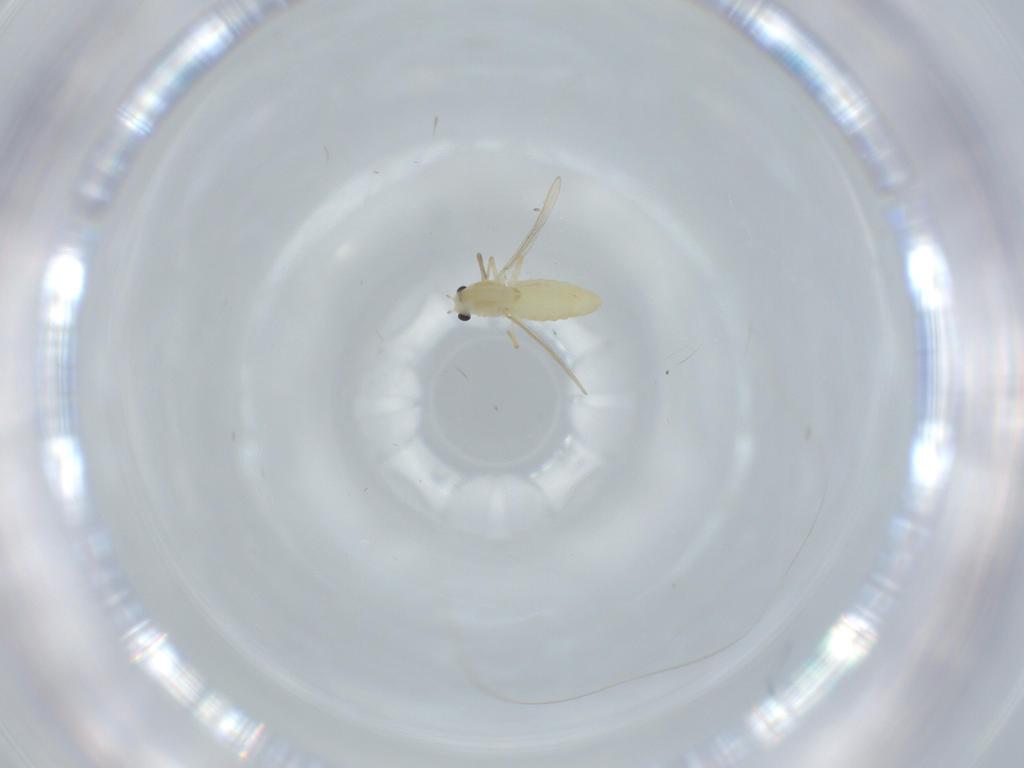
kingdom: Animalia
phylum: Arthropoda
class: Insecta
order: Diptera
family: Chironomidae
